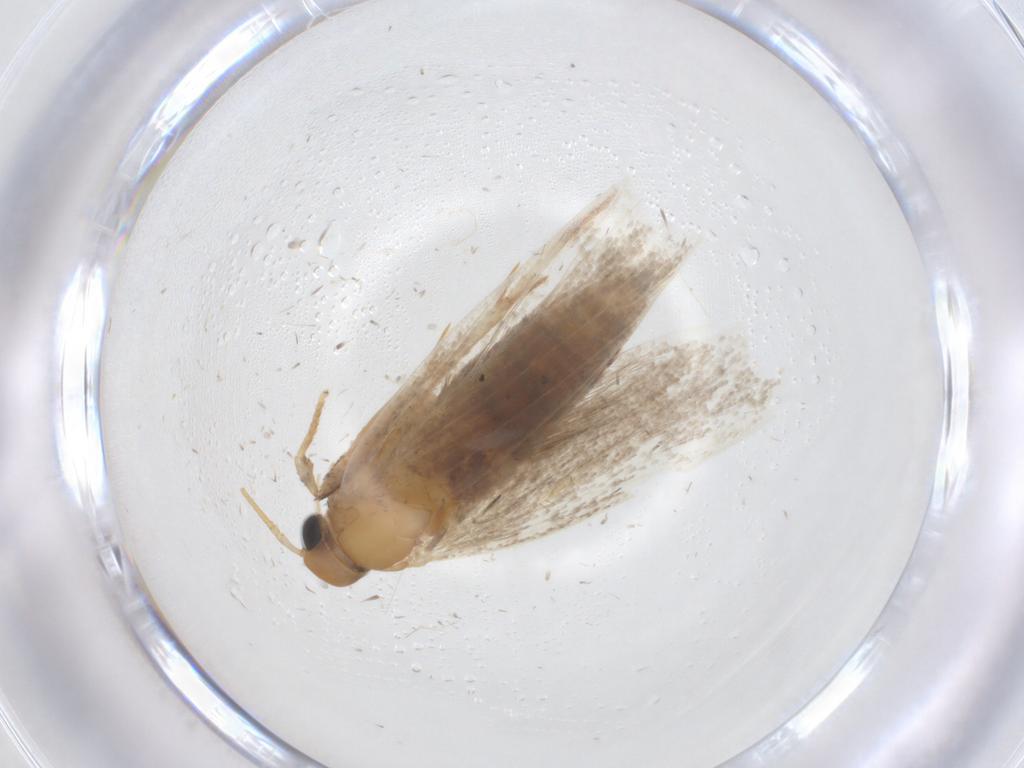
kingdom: Animalia
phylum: Arthropoda
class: Insecta
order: Lepidoptera
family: Oecophoridae
